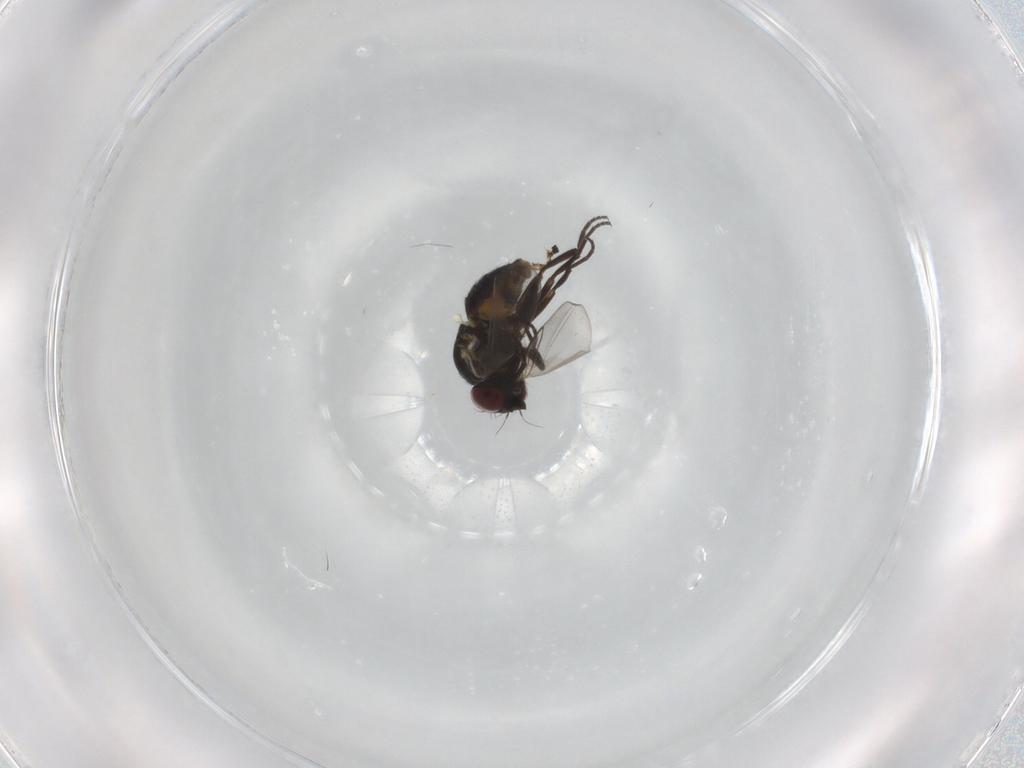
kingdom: Animalia
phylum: Arthropoda
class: Insecta
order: Diptera
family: Chyromyidae
